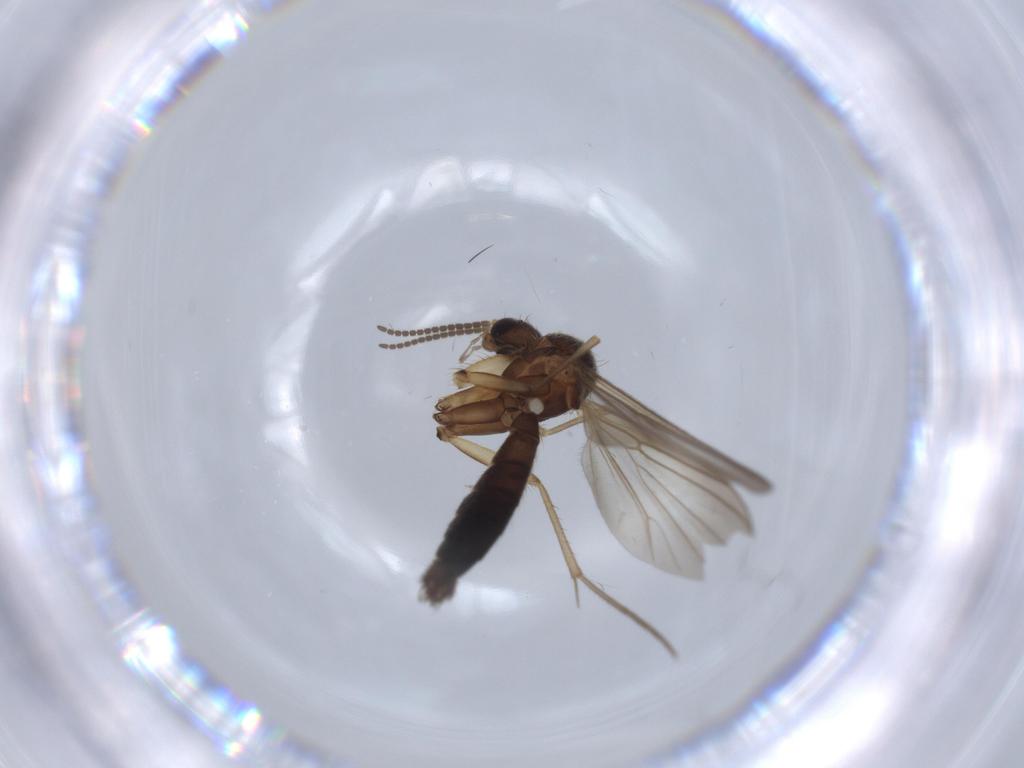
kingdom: Animalia
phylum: Arthropoda
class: Insecta
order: Diptera
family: Mycetophilidae
